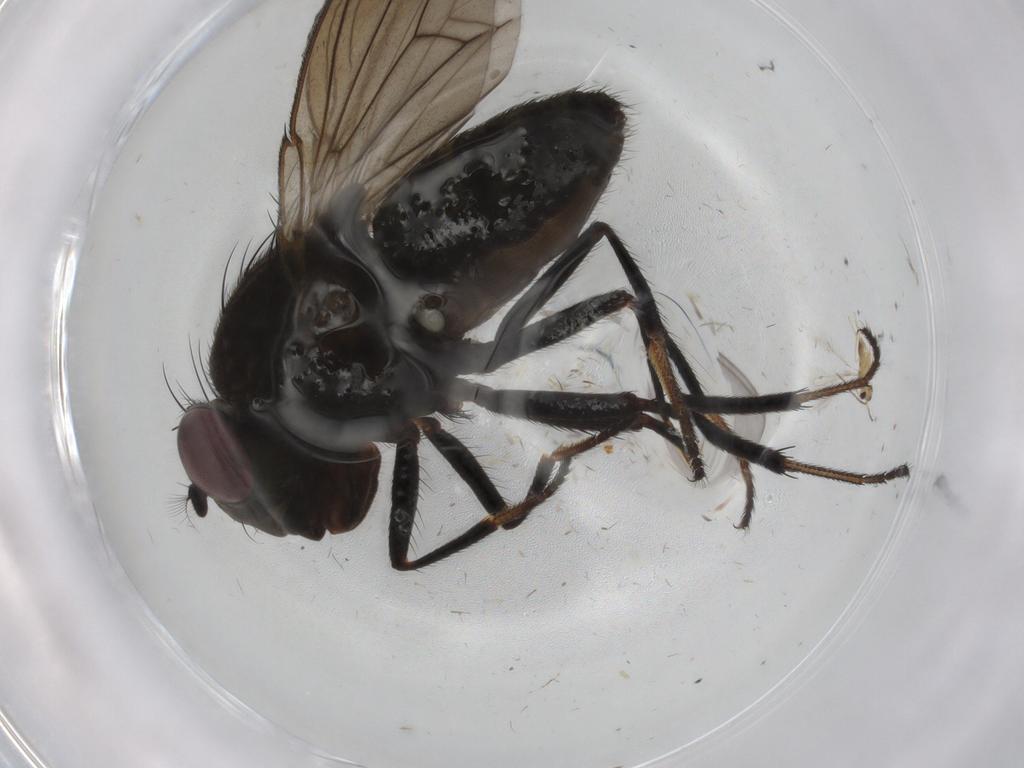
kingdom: Animalia
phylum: Arthropoda
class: Insecta
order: Diptera
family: Ephydridae
